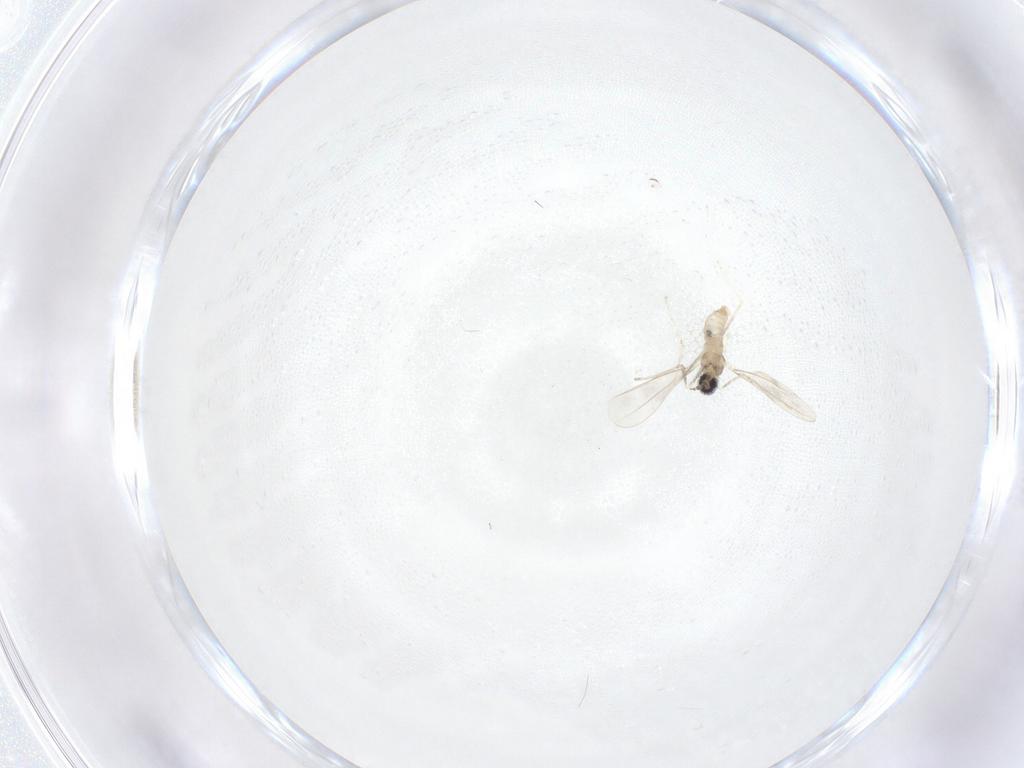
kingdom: Animalia
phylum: Arthropoda
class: Insecta
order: Diptera
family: Cecidomyiidae
